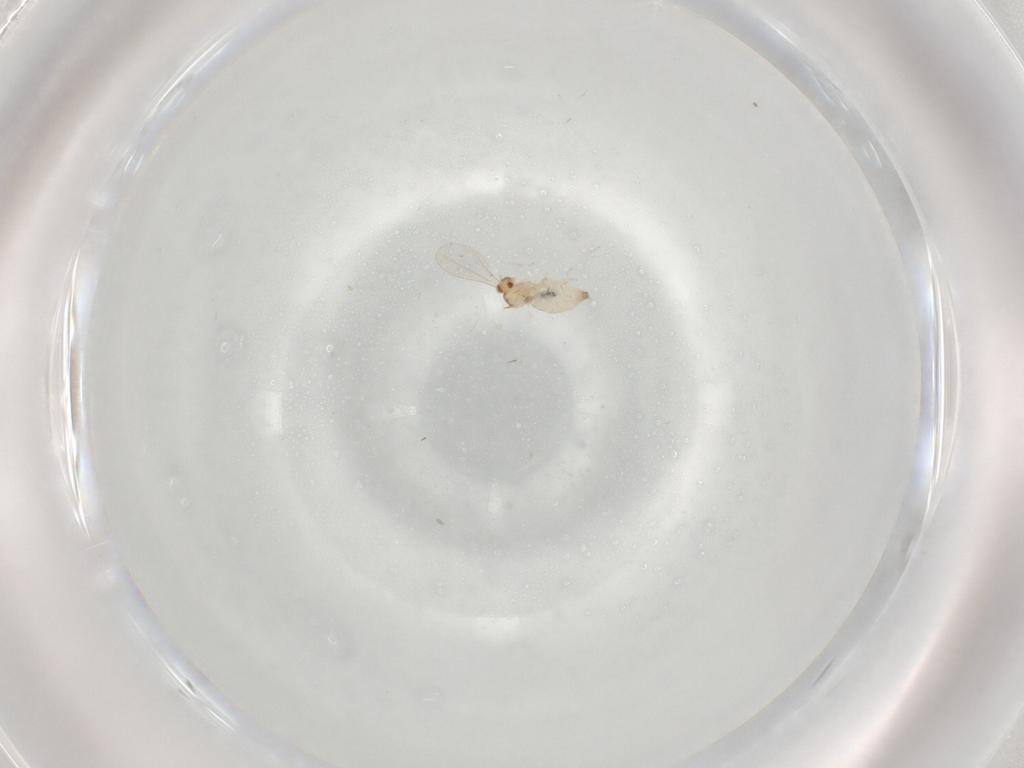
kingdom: Animalia
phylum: Arthropoda
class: Insecta
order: Diptera
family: Cecidomyiidae
